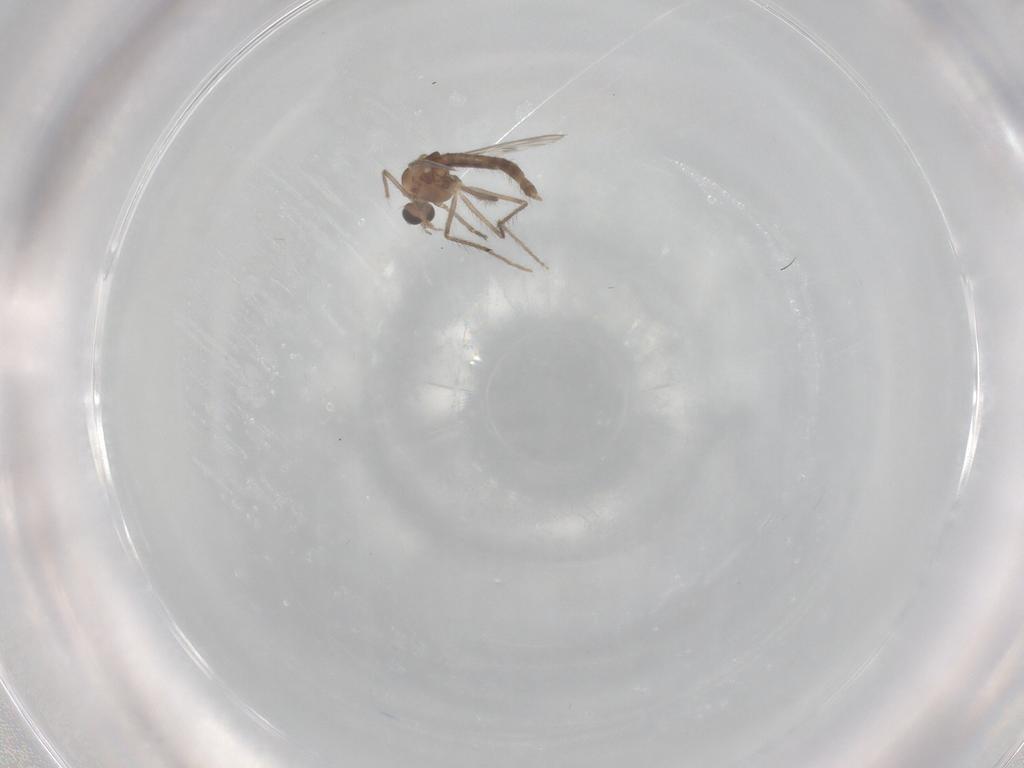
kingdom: Animalia
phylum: Arthropoda
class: Insecta
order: Diptera
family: Chironomidae
